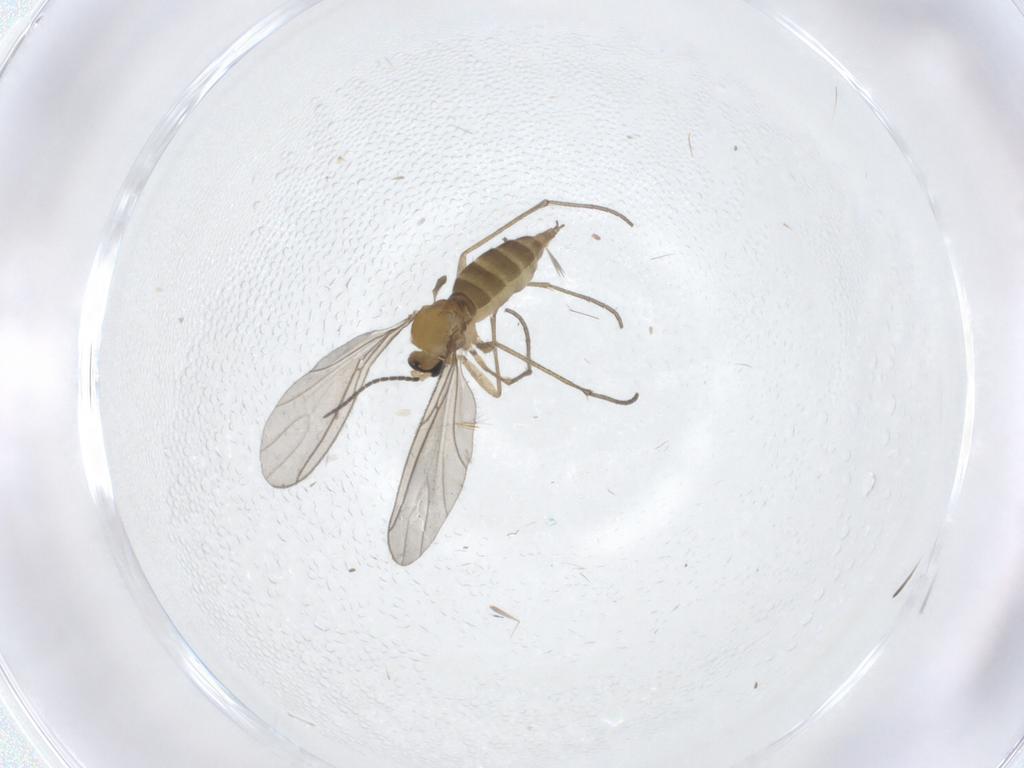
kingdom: Animalia
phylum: Arthropoda
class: Insecta
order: Diptera
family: Sciaridae
